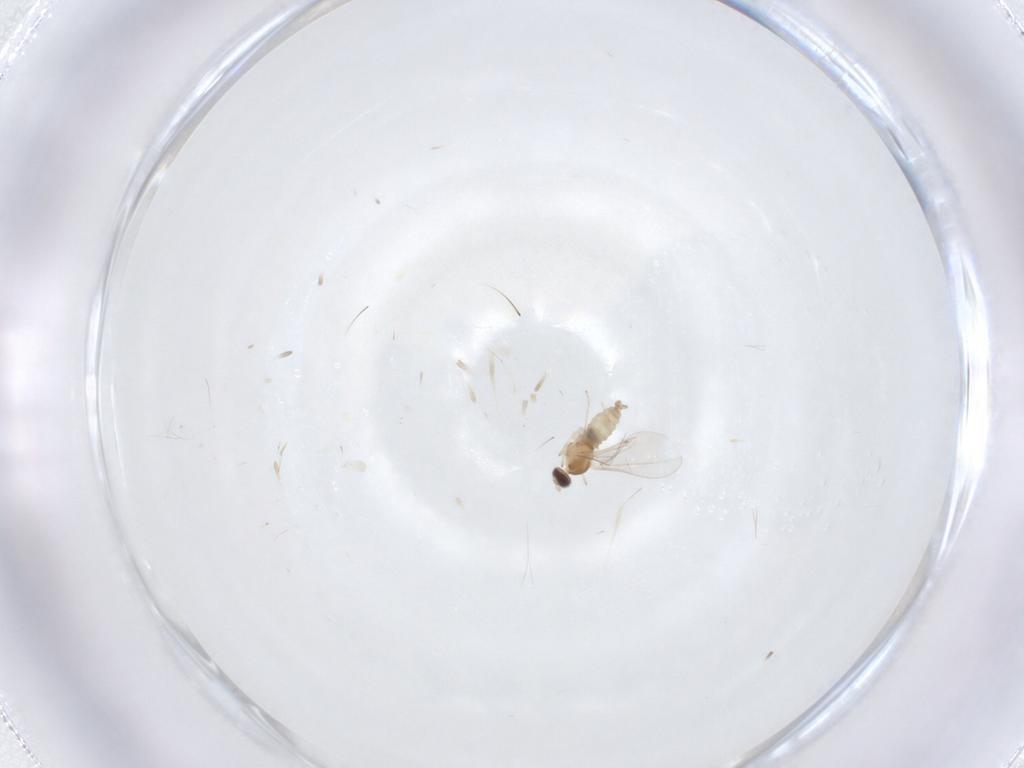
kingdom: Animalia
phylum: Arthropoda
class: Insecta
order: Diptera
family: Cecidomyiidae
